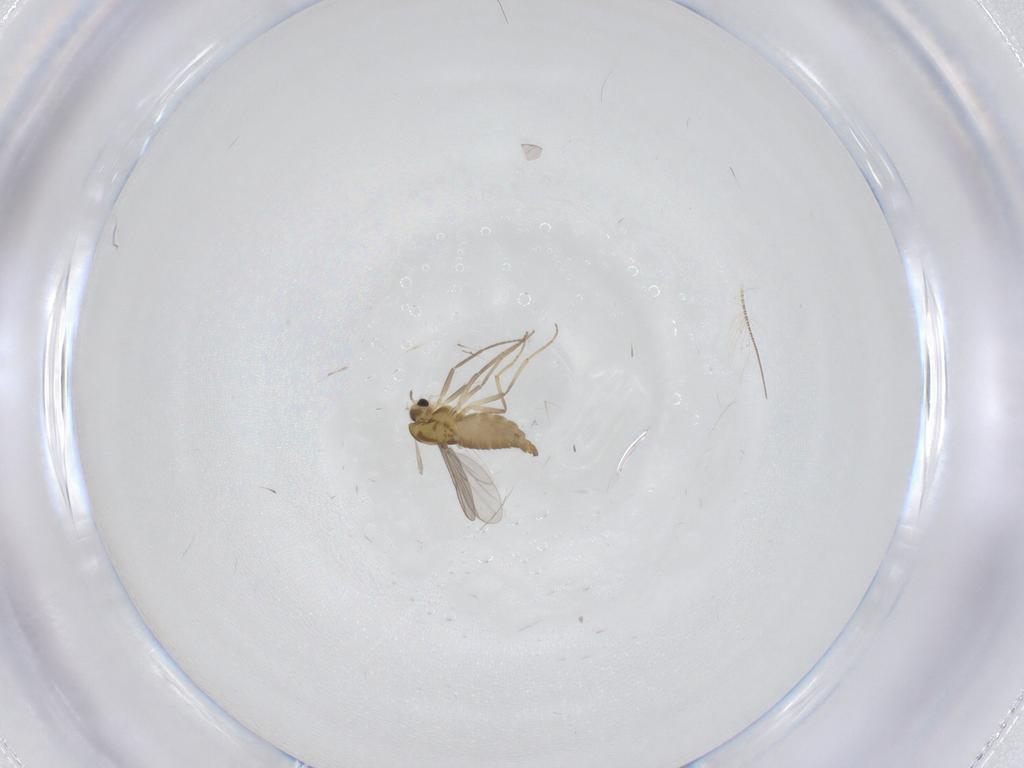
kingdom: Animalia
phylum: Arthropoda
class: Insecta
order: Diptera
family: Chironomidae
